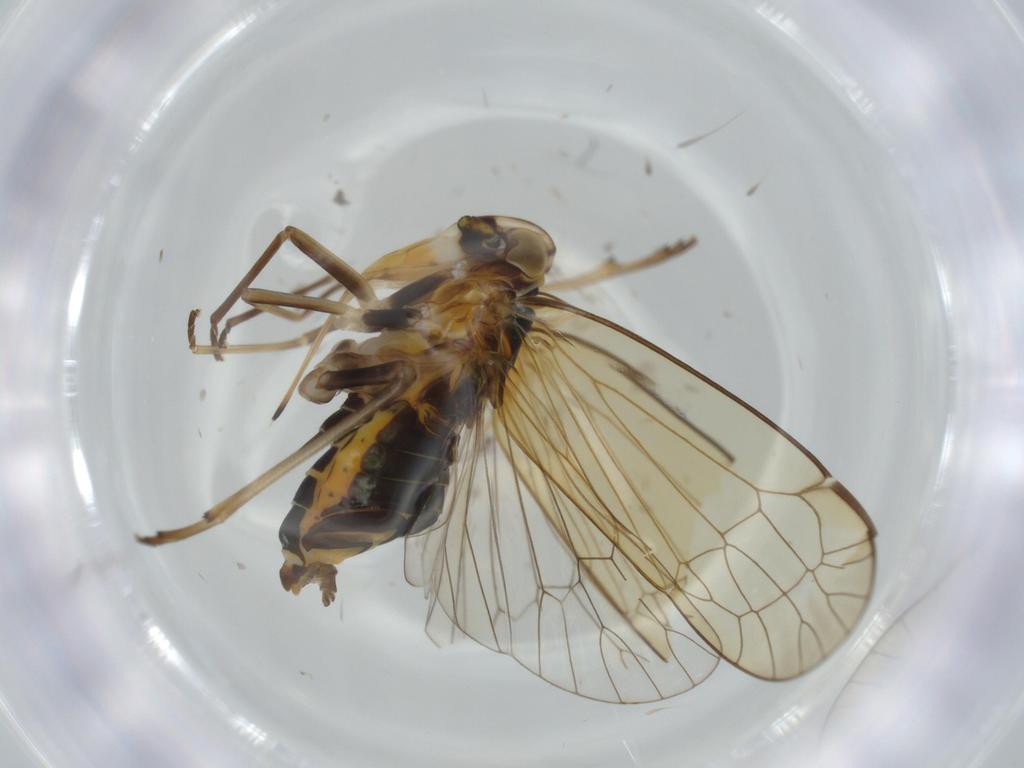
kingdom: Animalia
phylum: Arthropoda
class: Insecta
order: Hemiptera
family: Kinnaridae
